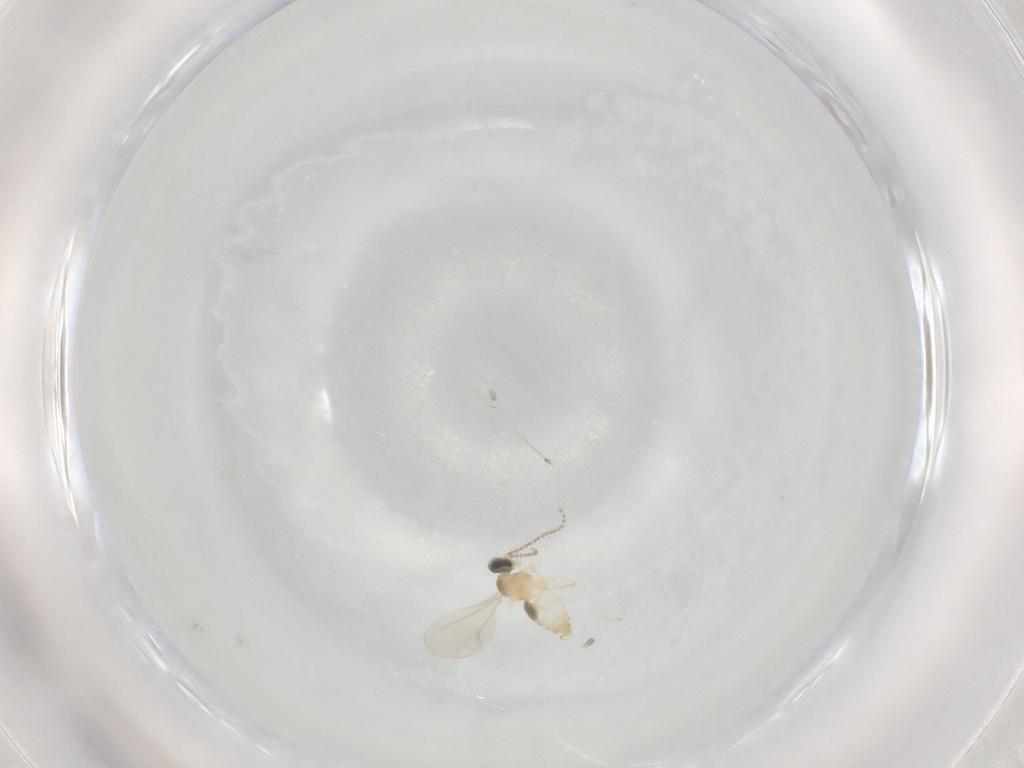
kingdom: Animalia
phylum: Arthropoda
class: Insecta
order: Diptera
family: Cecidomyiidae
